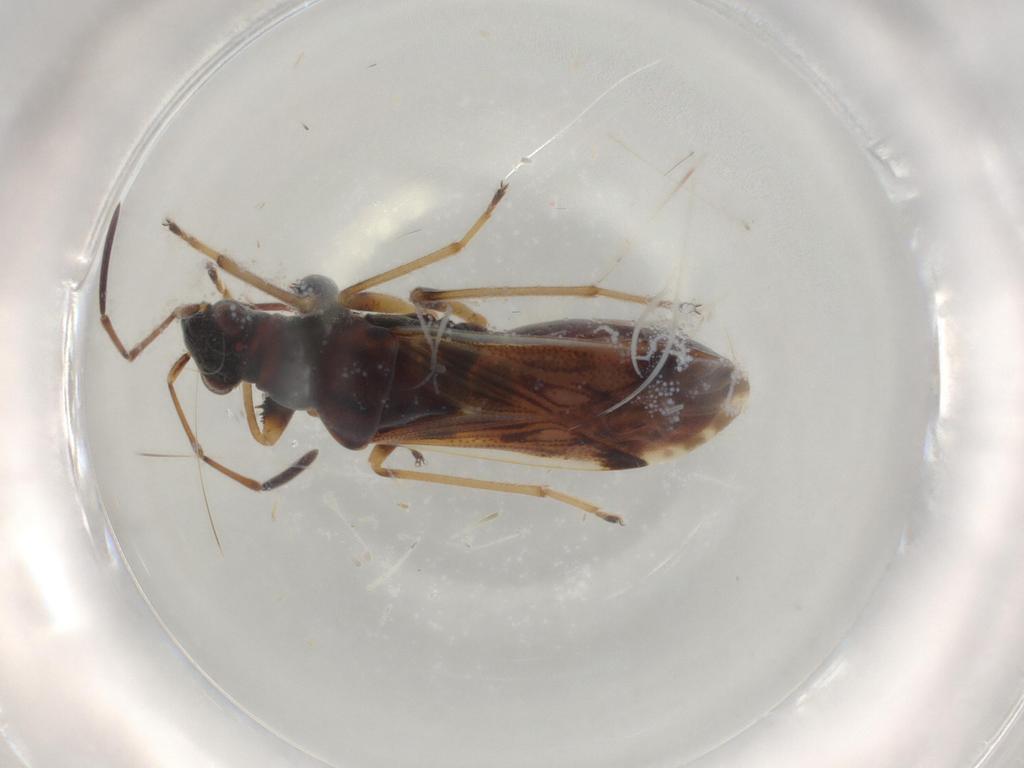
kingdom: Animalia
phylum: Arthropoda
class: Insecta
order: Hemiptera
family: Rhyparochromidae
